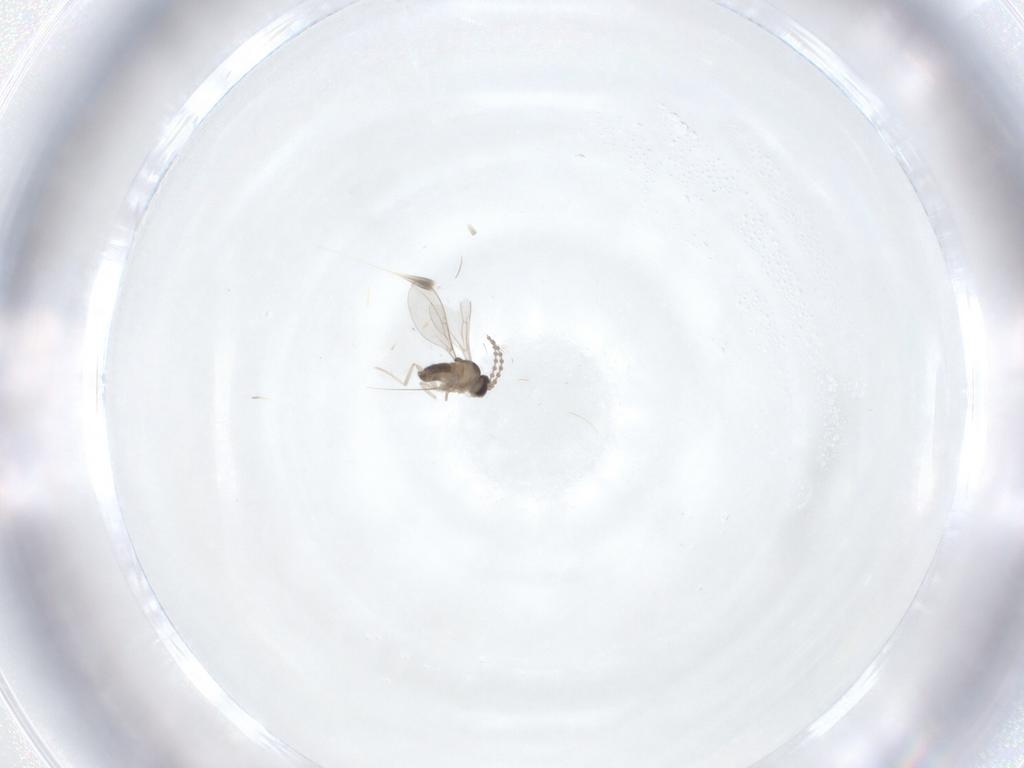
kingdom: Animalia
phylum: Arthropoda
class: Insecta
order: Diptera
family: Cecidomyiidae
